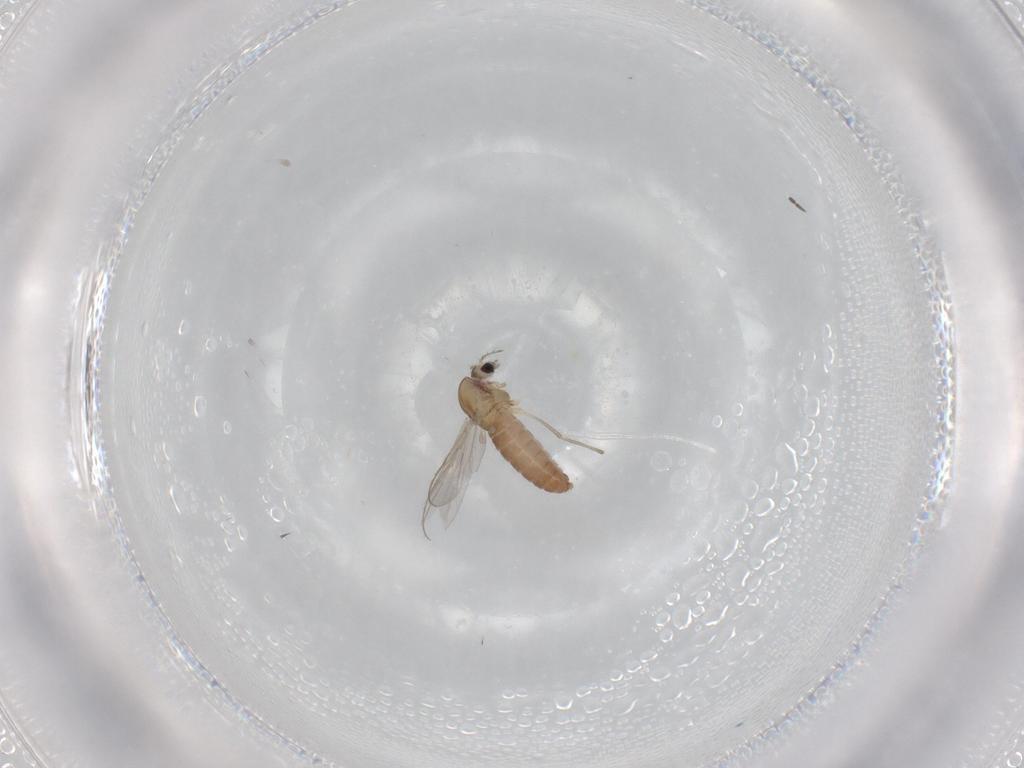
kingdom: Animalia
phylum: Arthropoda
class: Insecta
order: Diptera
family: Chironomidae
